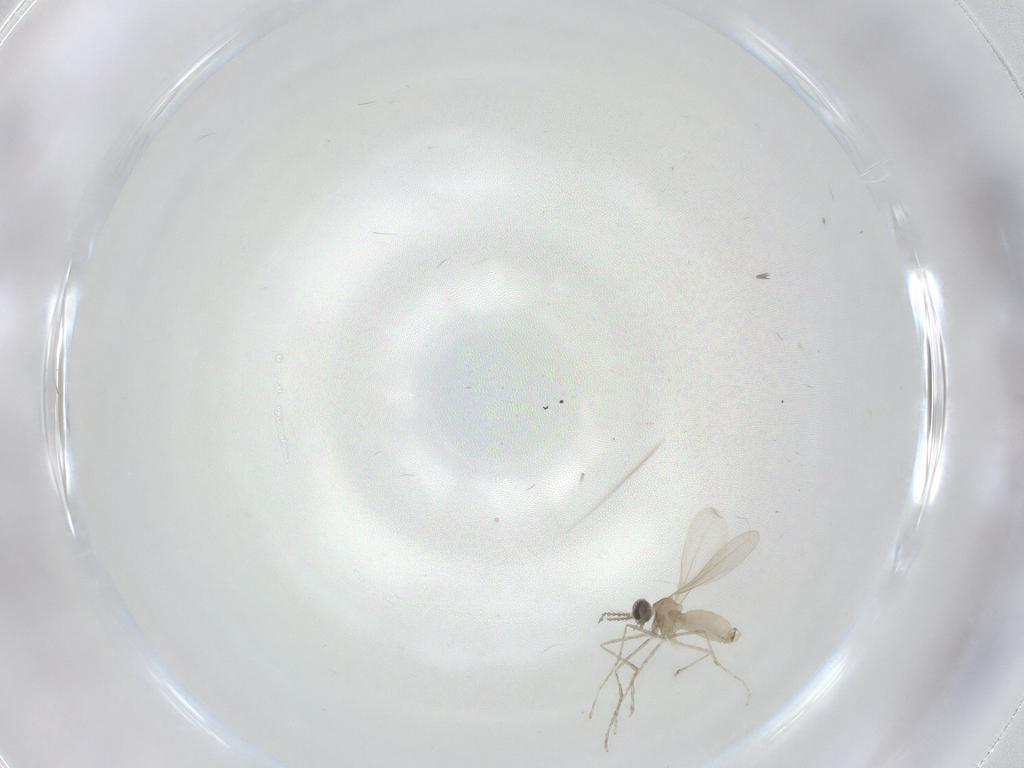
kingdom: Animalia
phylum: Arthropoda
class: Insecta
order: Diptera
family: Cecidomyiidae
